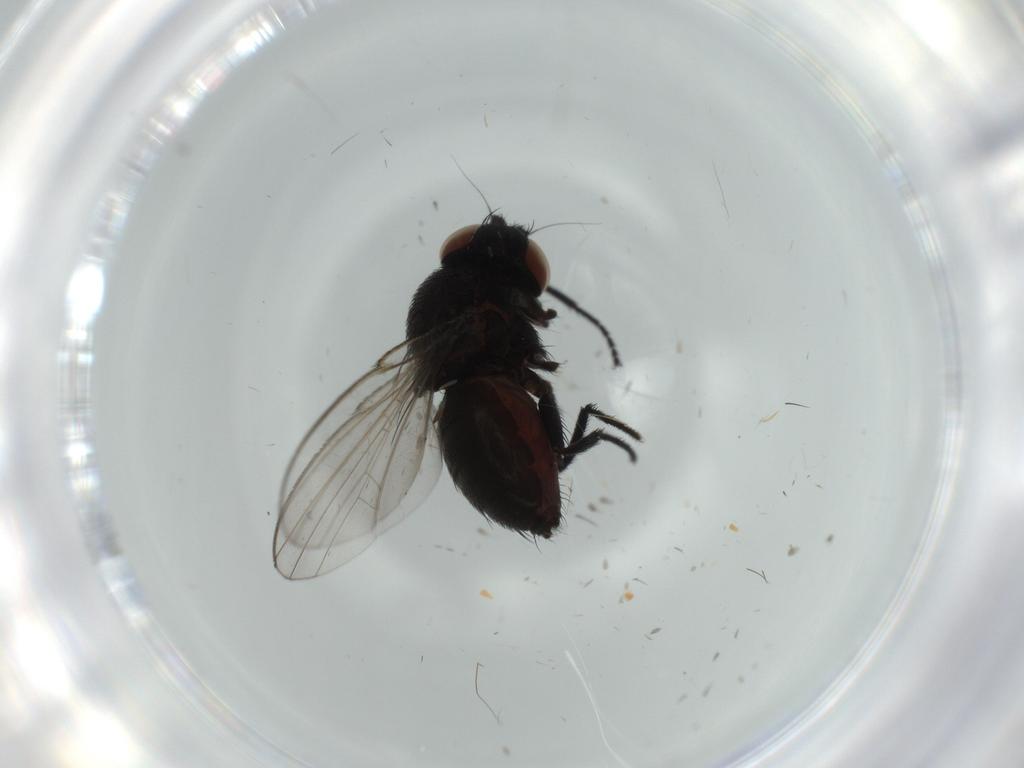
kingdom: Animalia
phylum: Arthropoda
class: Insecta
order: Diptera
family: Milichiidae
